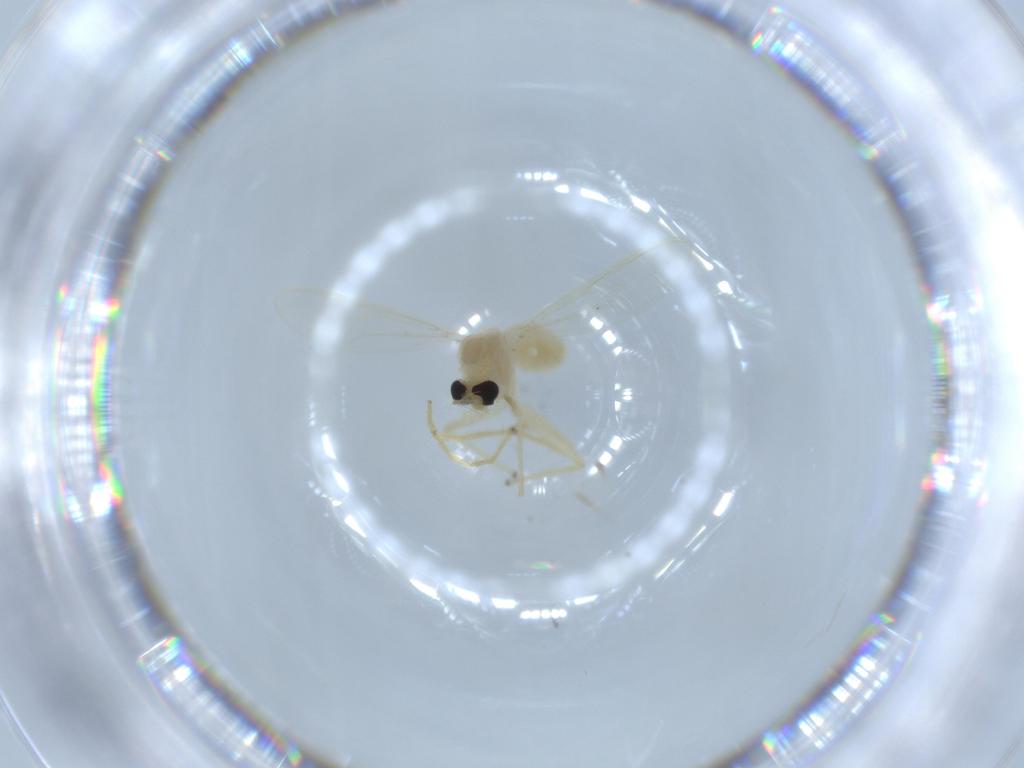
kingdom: Animalia
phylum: Arthropoda
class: Insecta
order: Diptera
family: Chironomidae
